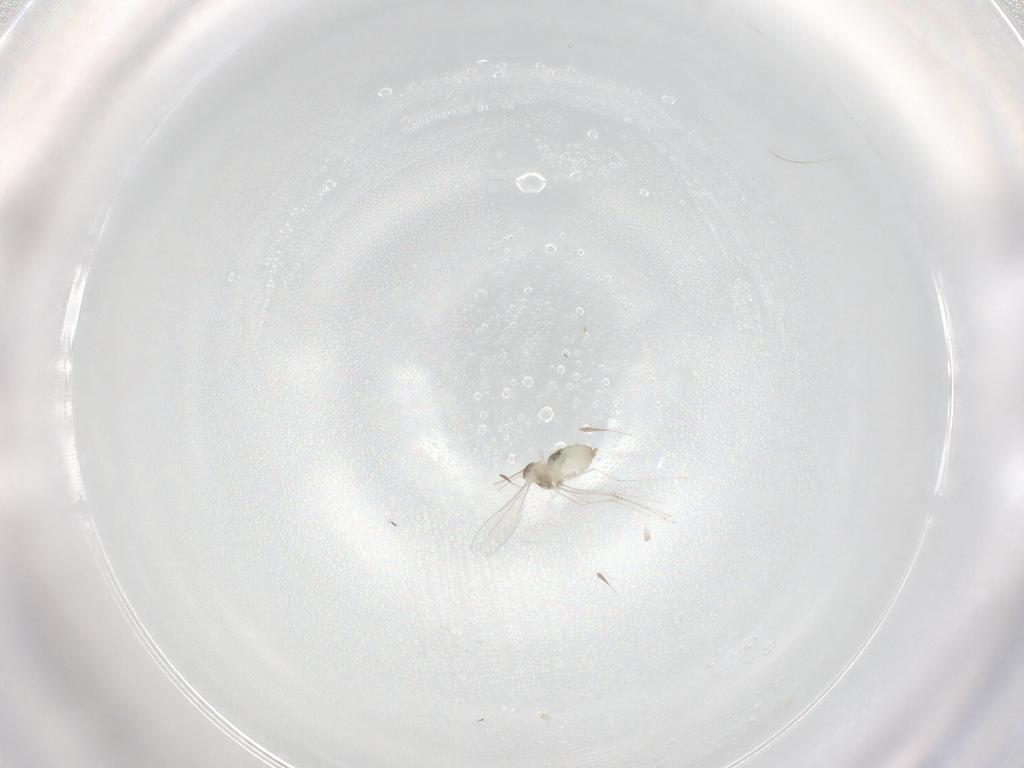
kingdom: Animalia
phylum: Arthropoda
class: Insecta
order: Diptera
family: Cecidomyiidae
